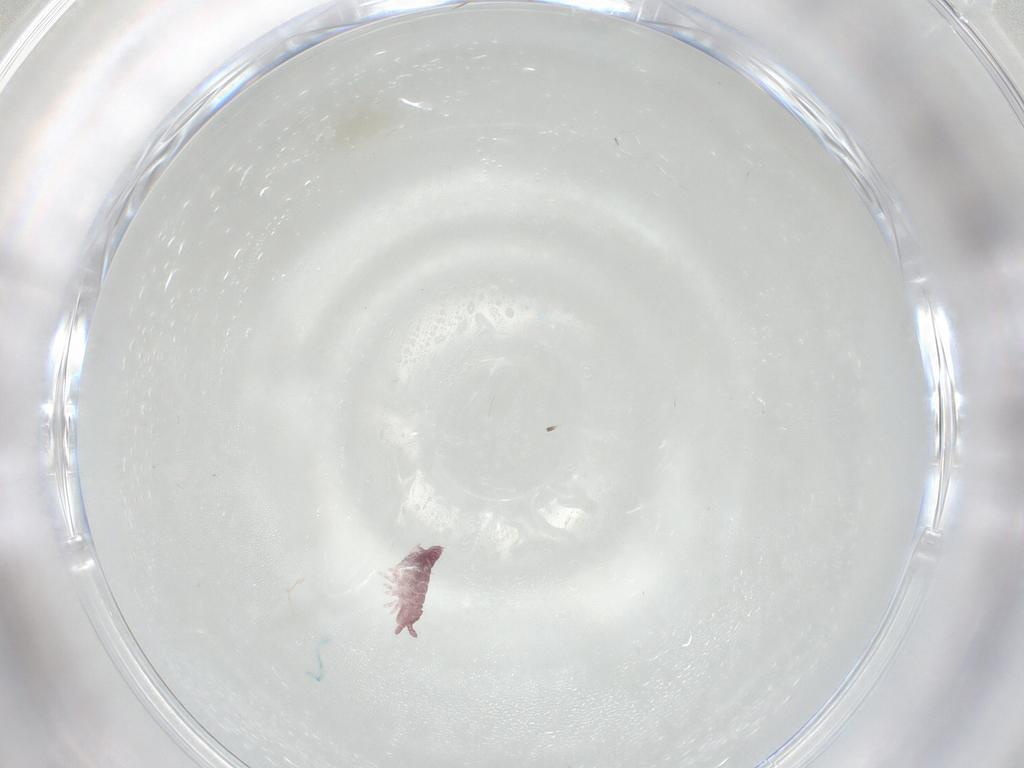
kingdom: Animalia
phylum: Arthropoda
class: Collembola
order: Poduromorpha
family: Hypogastruridae
